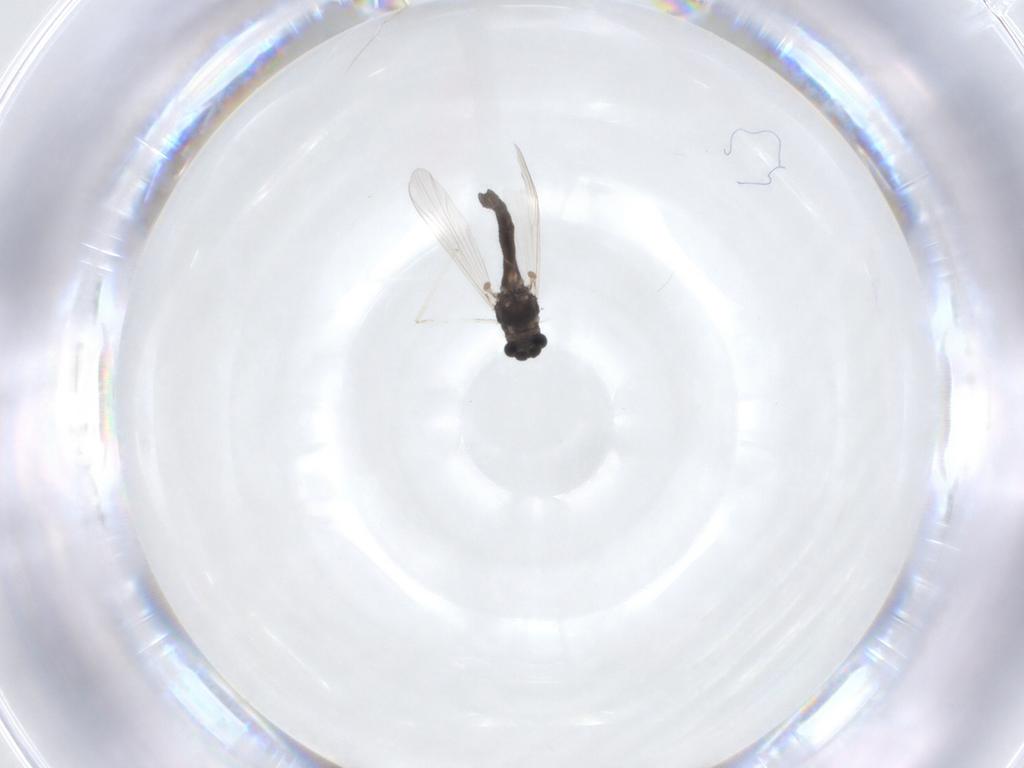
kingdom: Animalia
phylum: Arthropoda
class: Insecta
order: Diptera
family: Chironomidae
